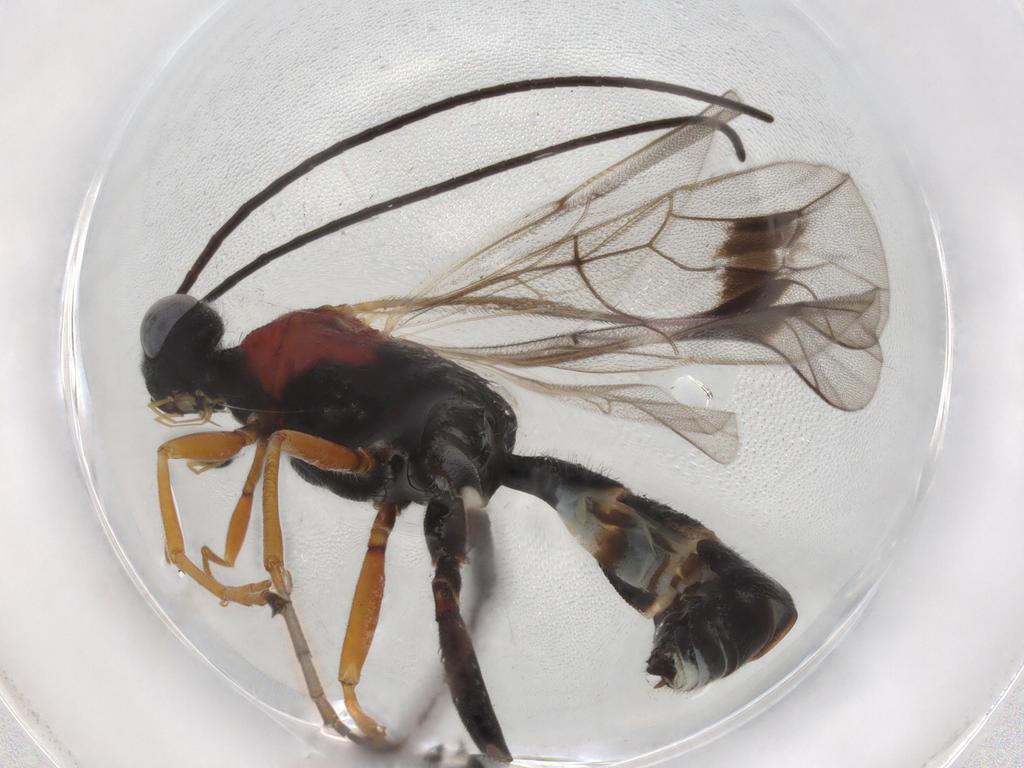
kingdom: Animalia
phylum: Arthropoda
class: Insecta
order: Hymenoptera
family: Ichneumonidae
